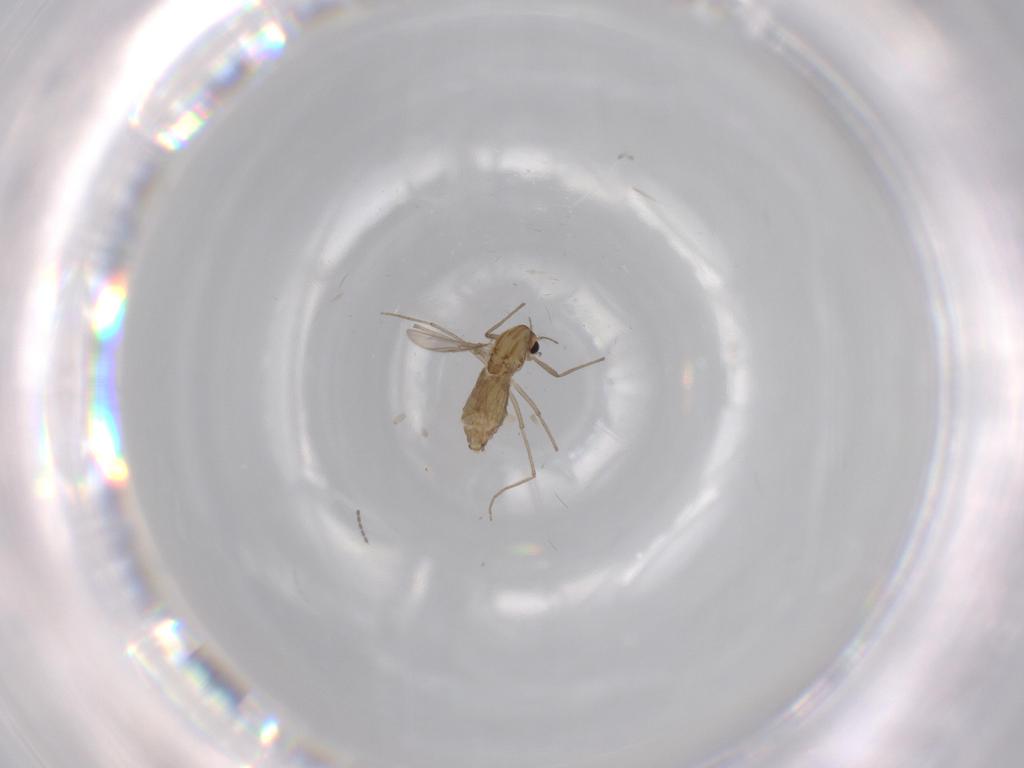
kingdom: Animalia
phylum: Arthropoda
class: Insecta
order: Diptera
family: Chironomidae
